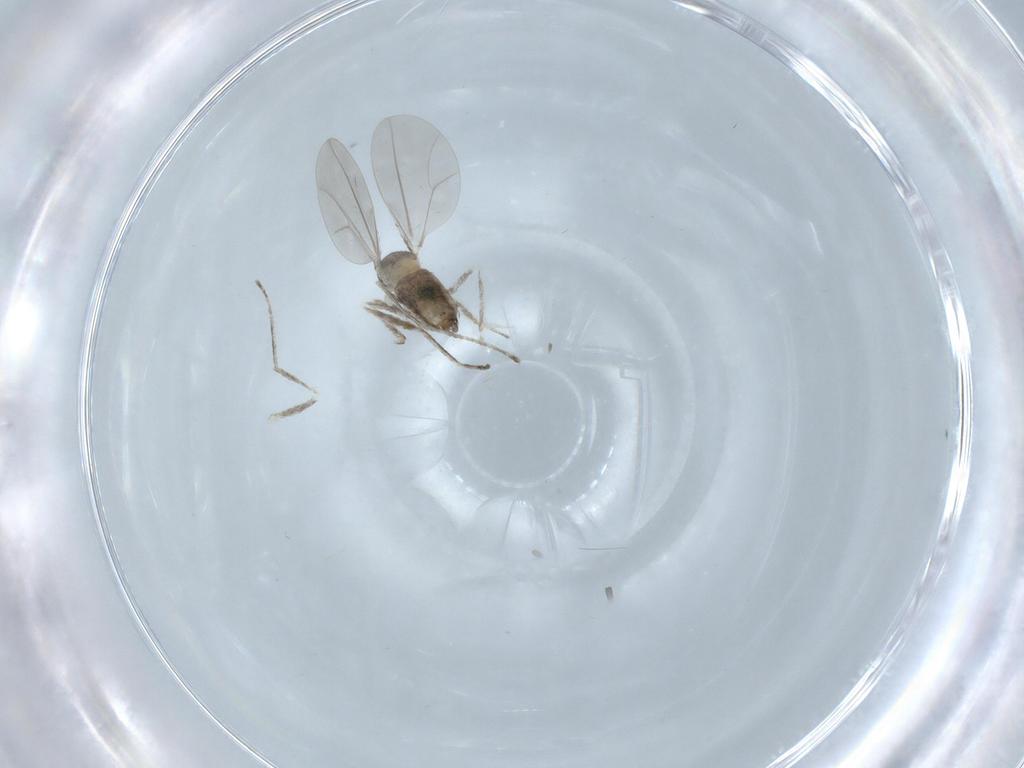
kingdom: Animalia
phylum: Arthropoda
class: Insecta
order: Diptera
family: Cecidomyiidae
